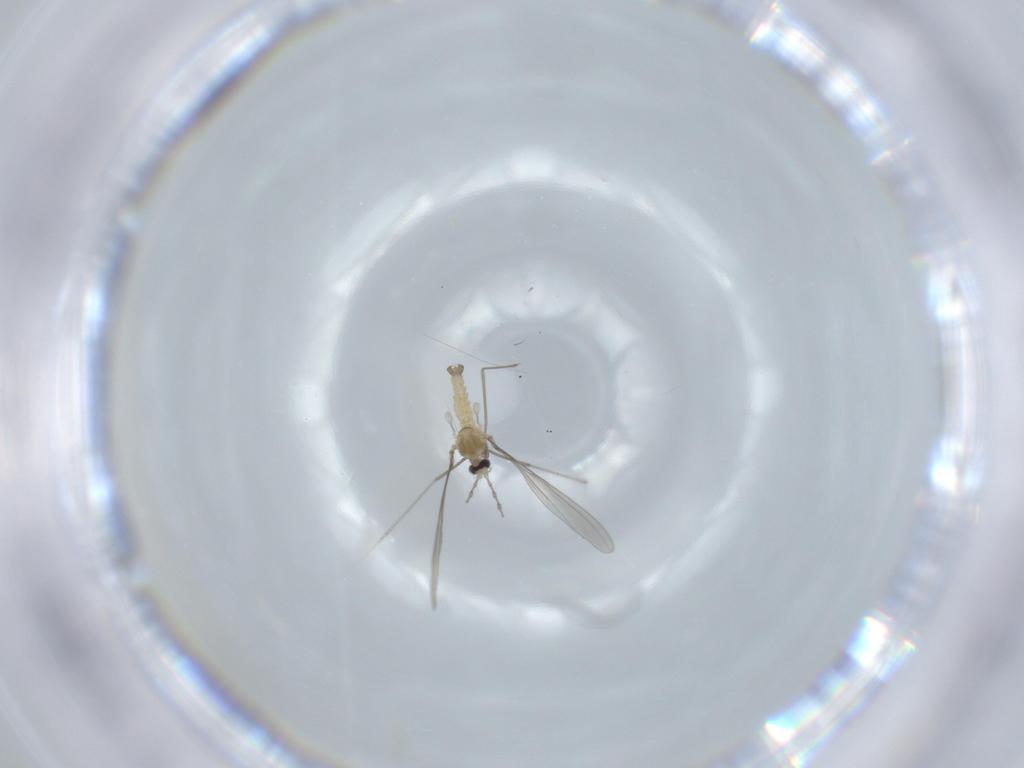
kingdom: Animalia
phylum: Arthropoda
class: Insecta
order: Diptera
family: Cecidomyiidae
